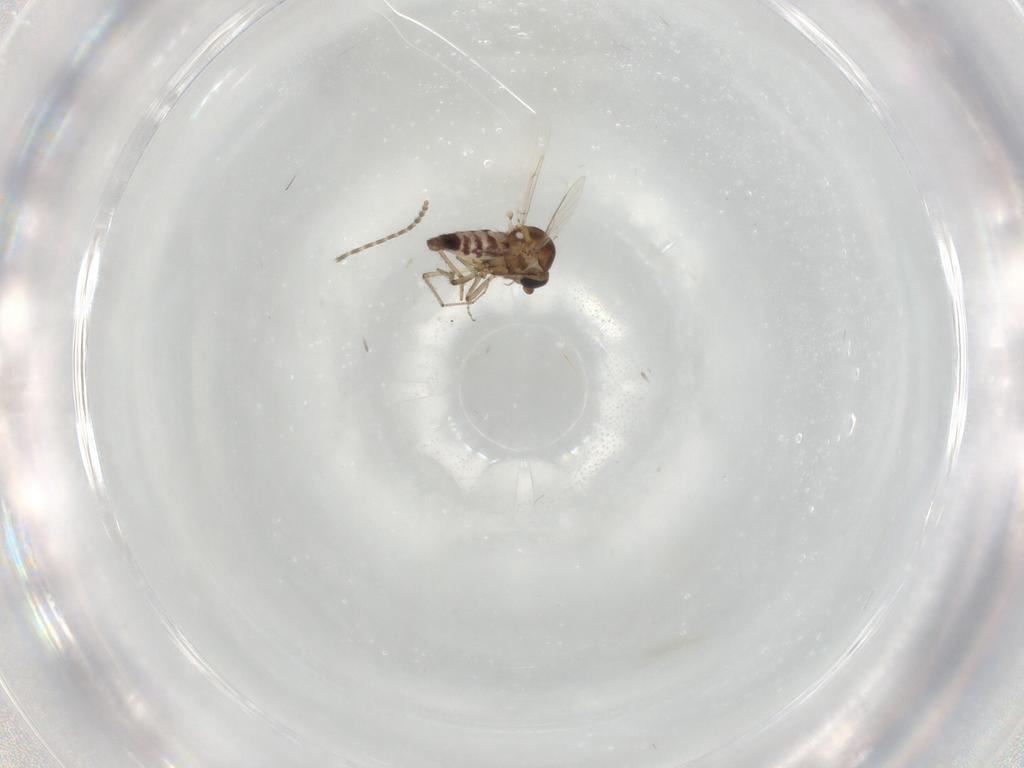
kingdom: Animalia
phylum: Arthropoda
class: Insecta
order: Diptera
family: Ceratopogonidae
